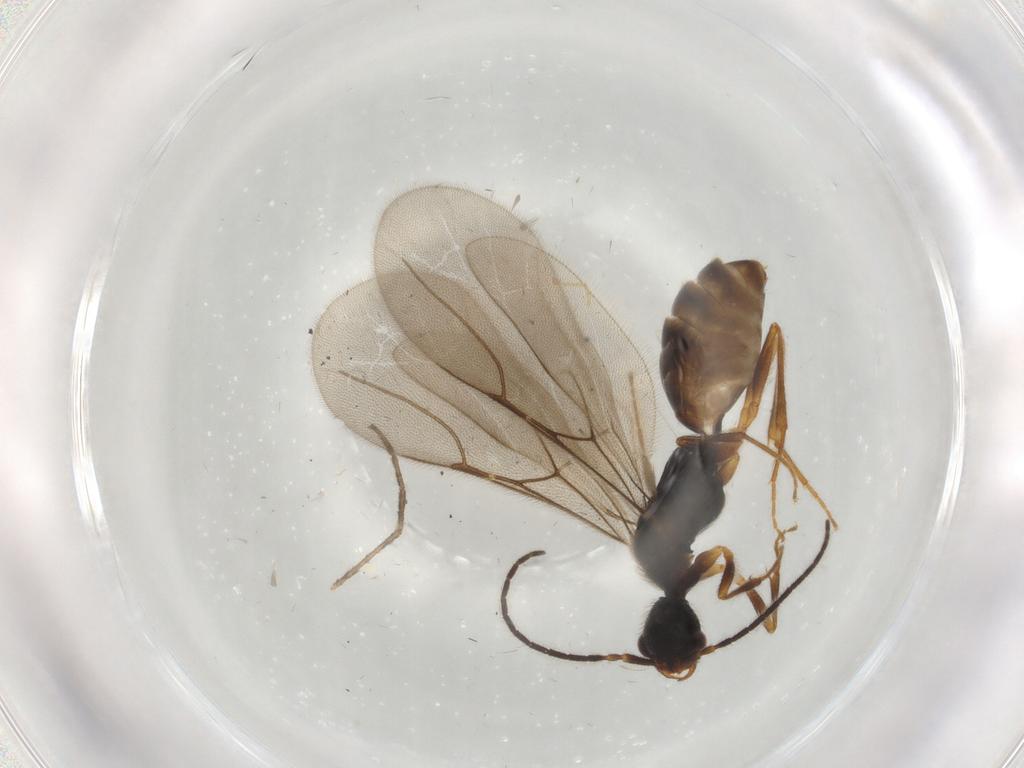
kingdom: Animalia
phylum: Arthropoda
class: Insecta
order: Hymenoptera
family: Bethylidae
